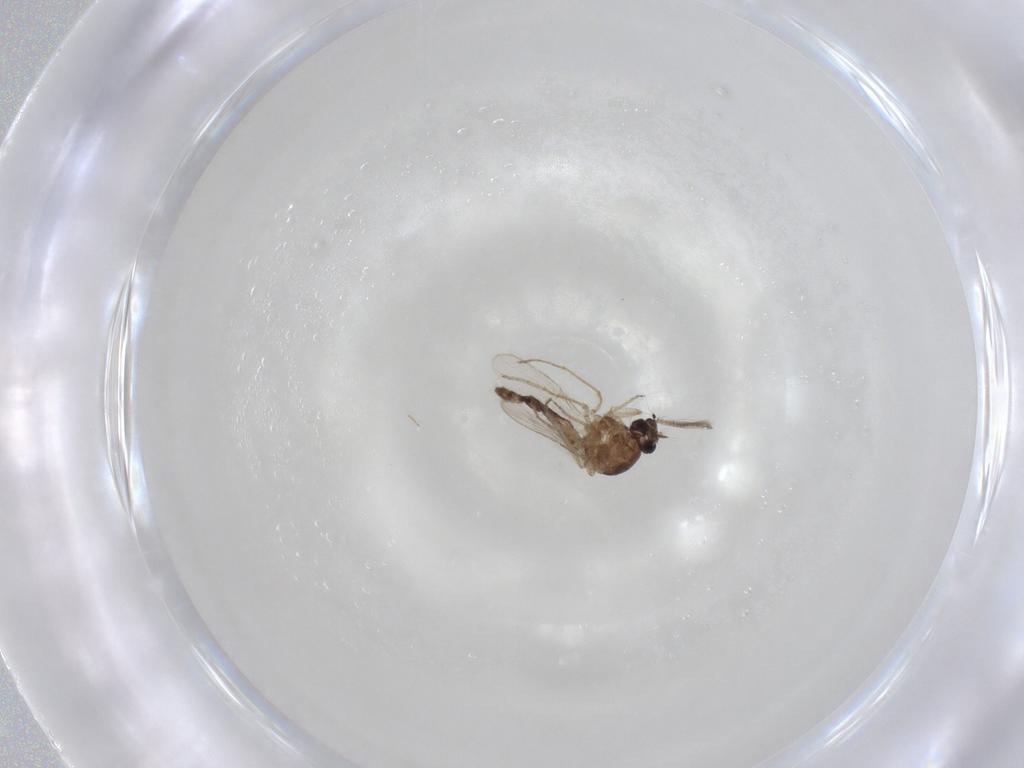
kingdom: Animalia
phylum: Arthropoda
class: Insecta
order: Diptera
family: Ceratopogonidae
